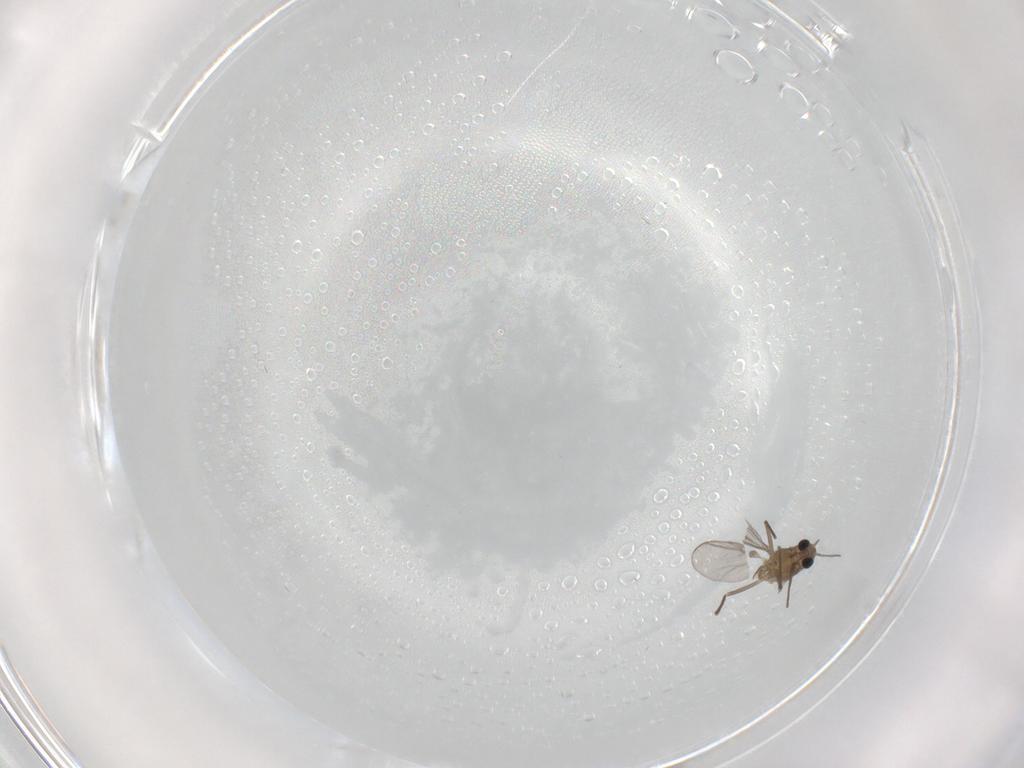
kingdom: Animalia
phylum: Arthropoda
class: Insecta
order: Diptera
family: Chironomidae
